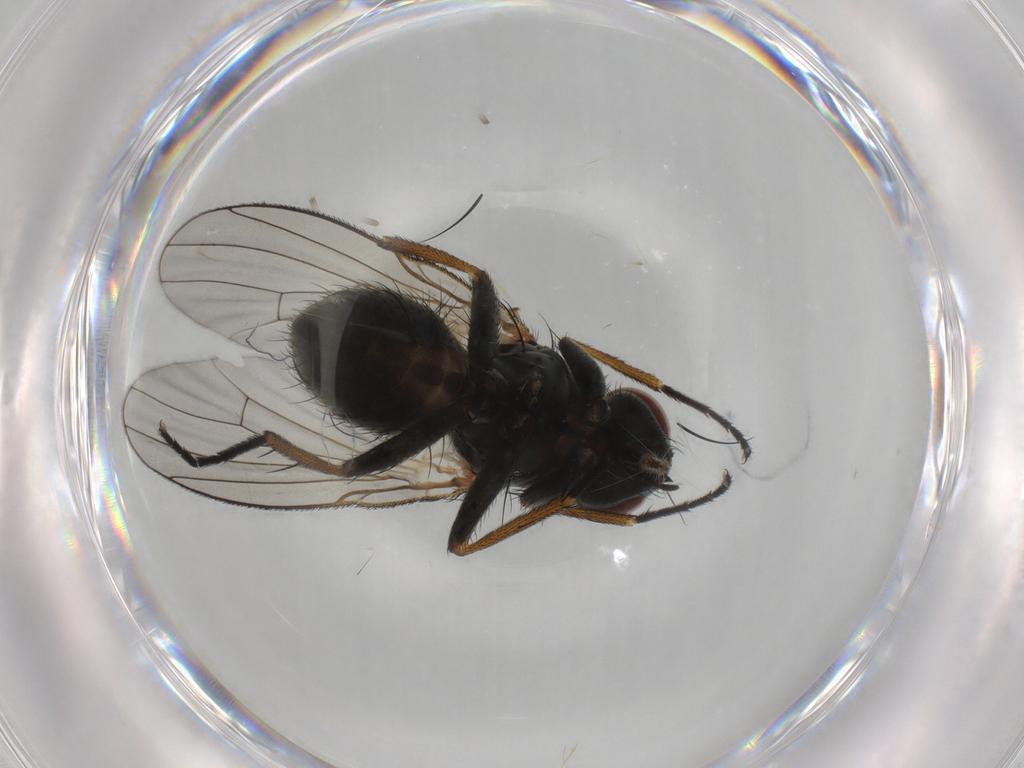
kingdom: Animalia
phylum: Arthropoda
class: Insecta
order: Diptera
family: Muscidae
